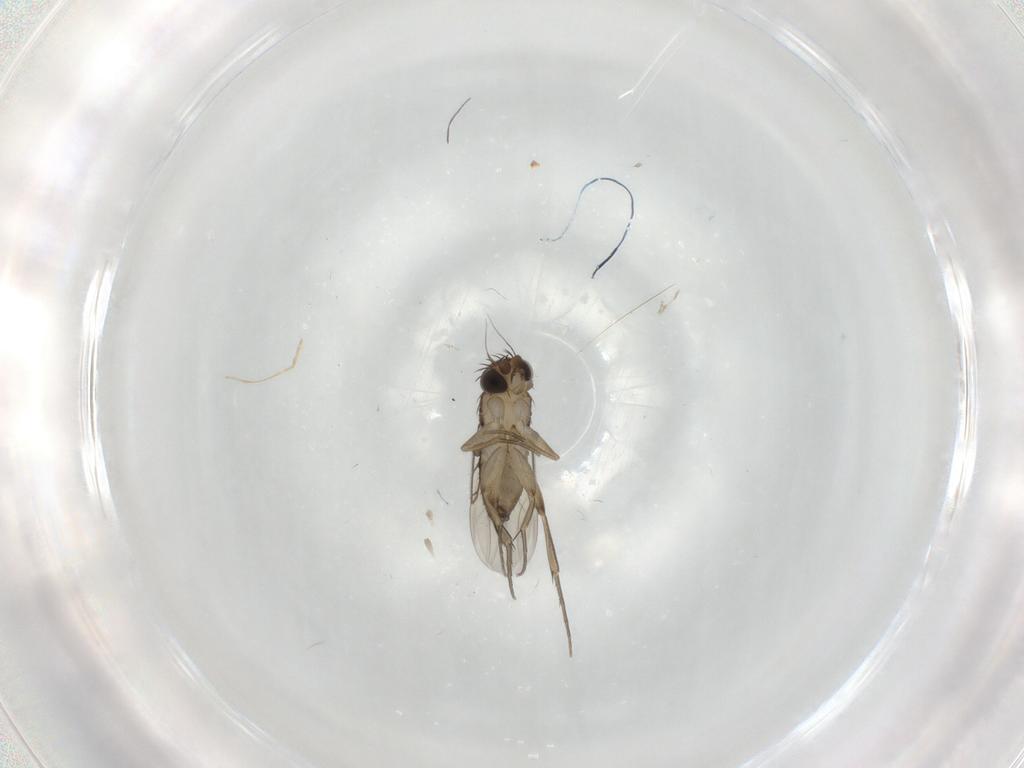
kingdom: Animalia
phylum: Arthropoda
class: Insecta
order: Diptera
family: Phoridae
